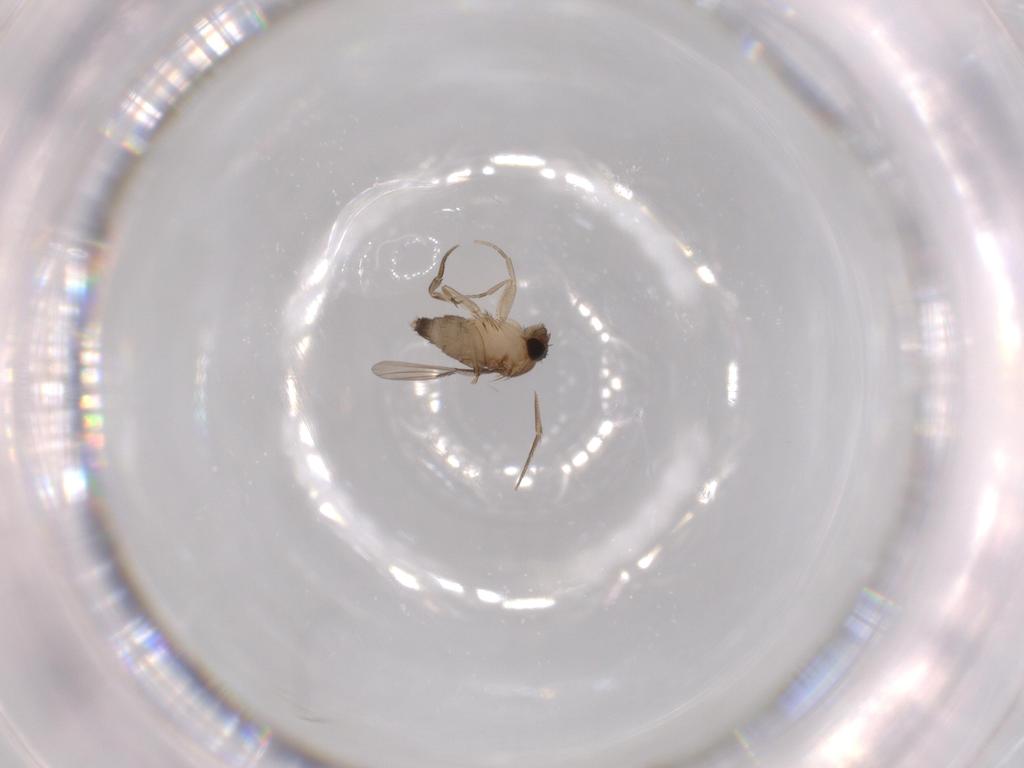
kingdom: Animalia
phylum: Arthropoda
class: Insecta
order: Diptera
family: Phoridae
